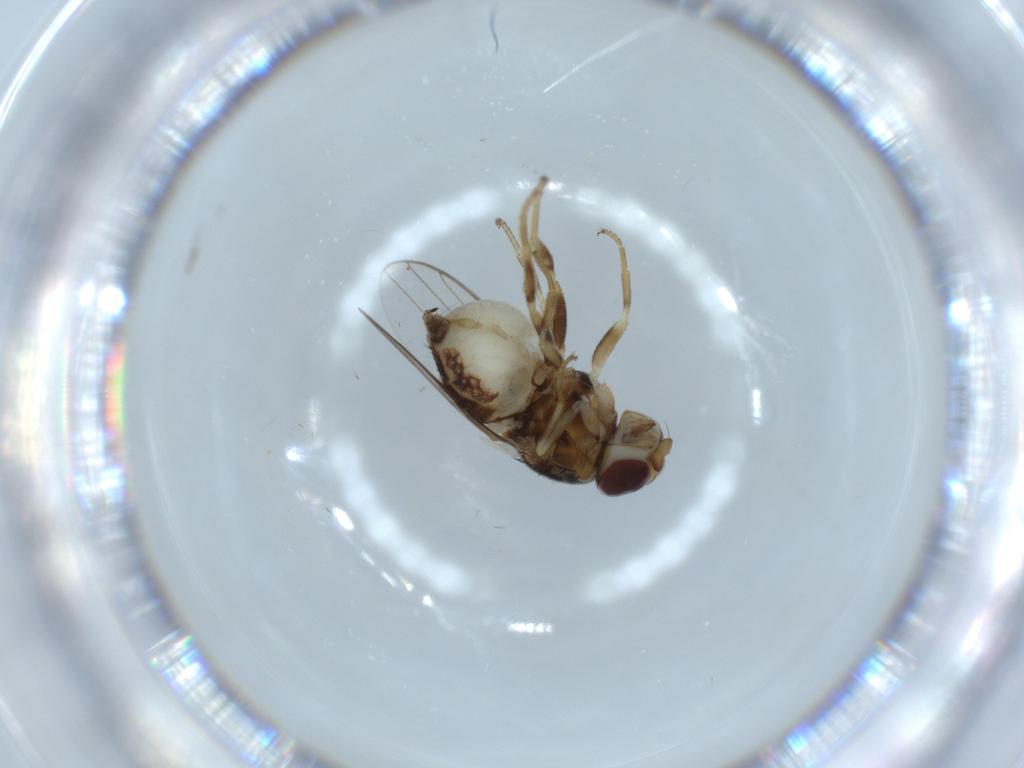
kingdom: Animalia
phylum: Arthropoda
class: Insecta
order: Diptera
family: Chloropidae
